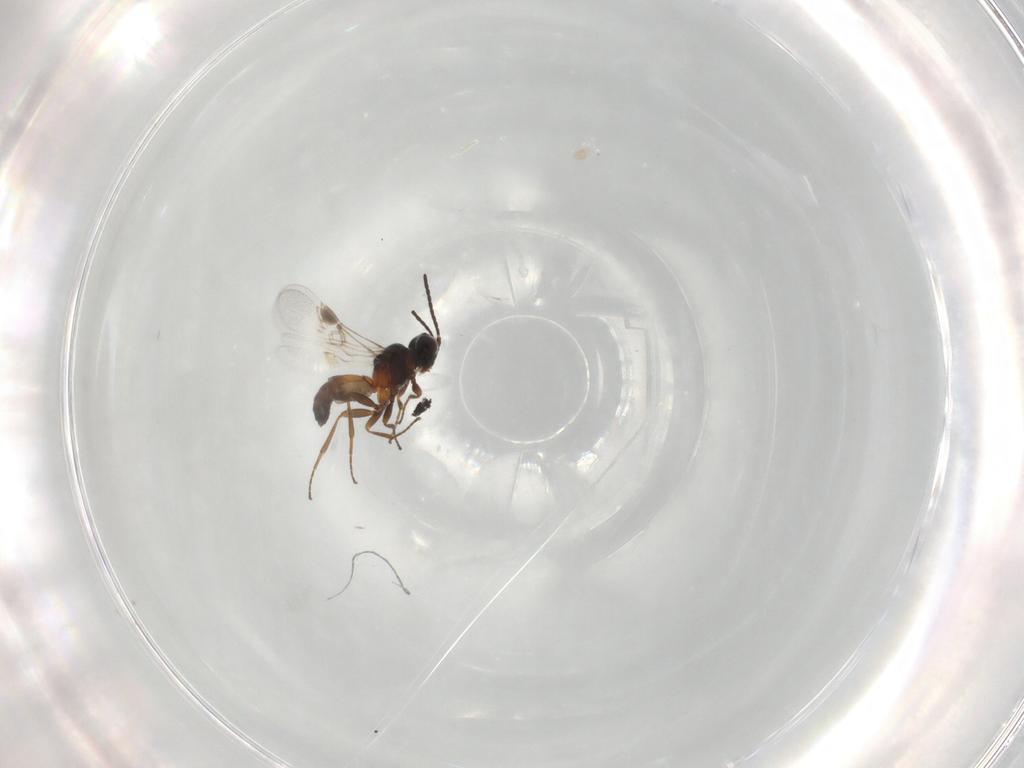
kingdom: Animalia
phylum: Arthropoda
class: Insecta
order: Hymenoptera
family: Braconidae
